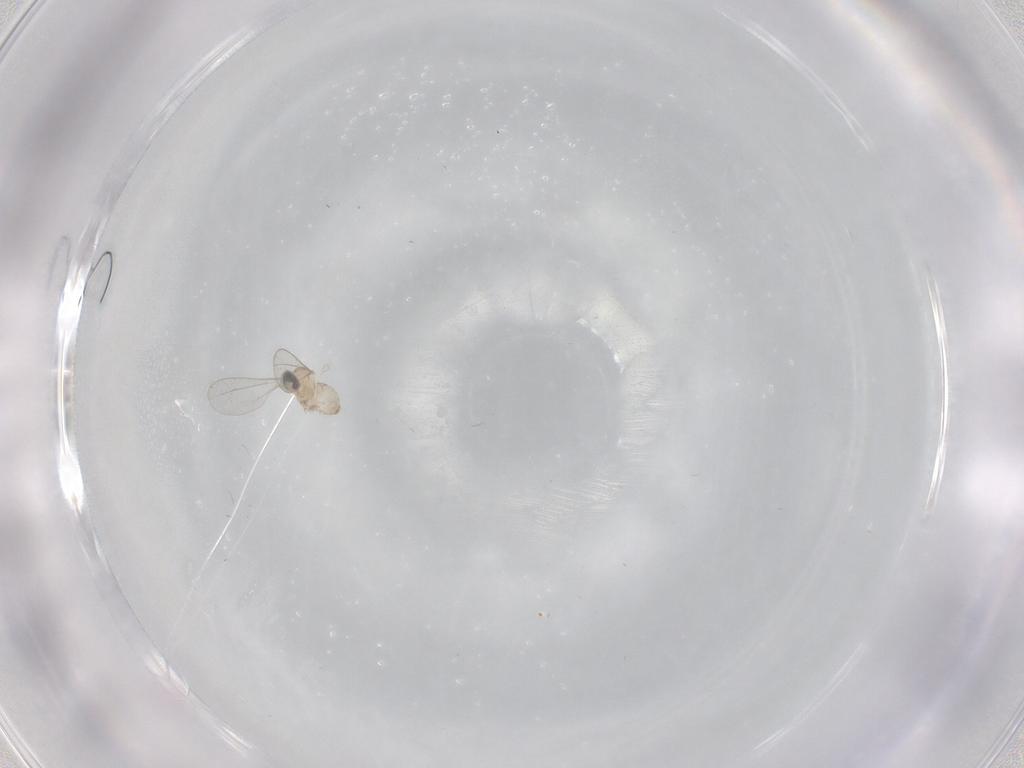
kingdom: Animalia
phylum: Arthropoda
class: Insecta
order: Diptera
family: Cecidomyiidae
